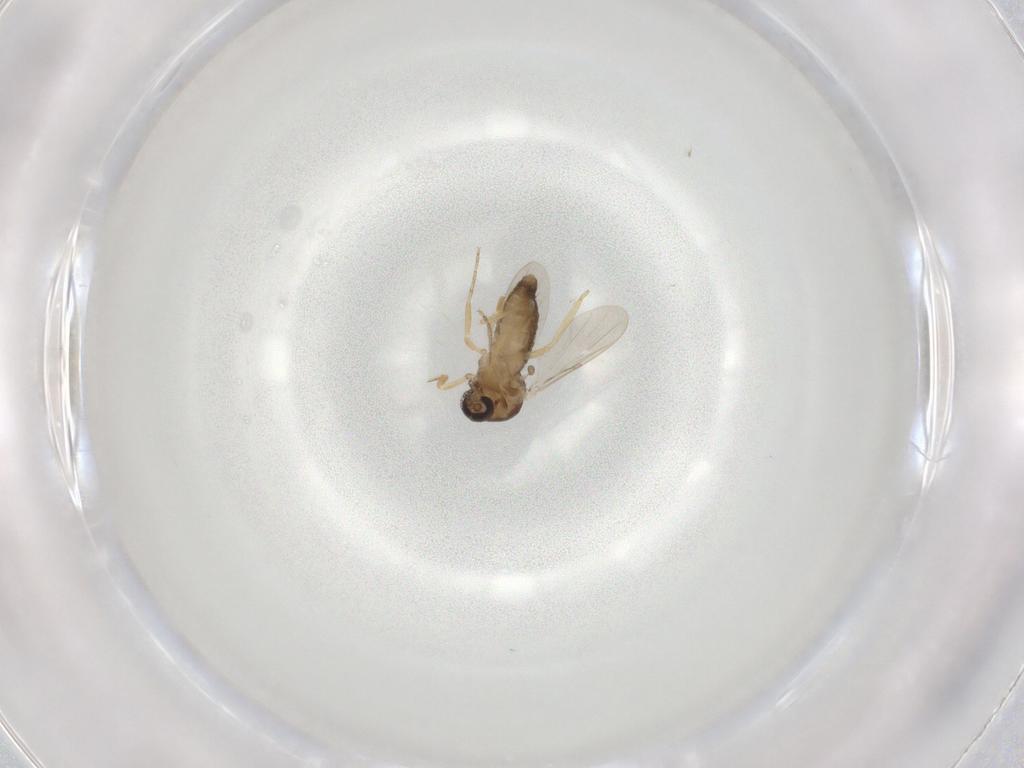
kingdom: Animalia
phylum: Arthropoda
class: Insecta
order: Diptera
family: Ceratopogonidae
